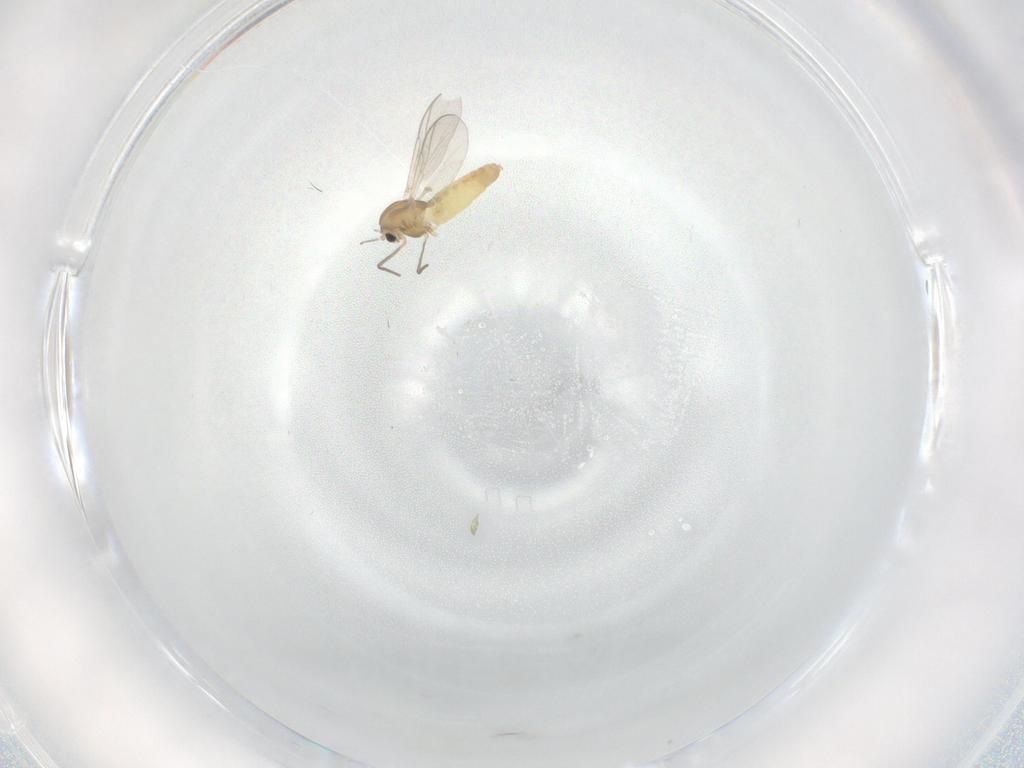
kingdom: Animalia
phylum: Arthropoda
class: Insecta
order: Diptera
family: Chironomidae
